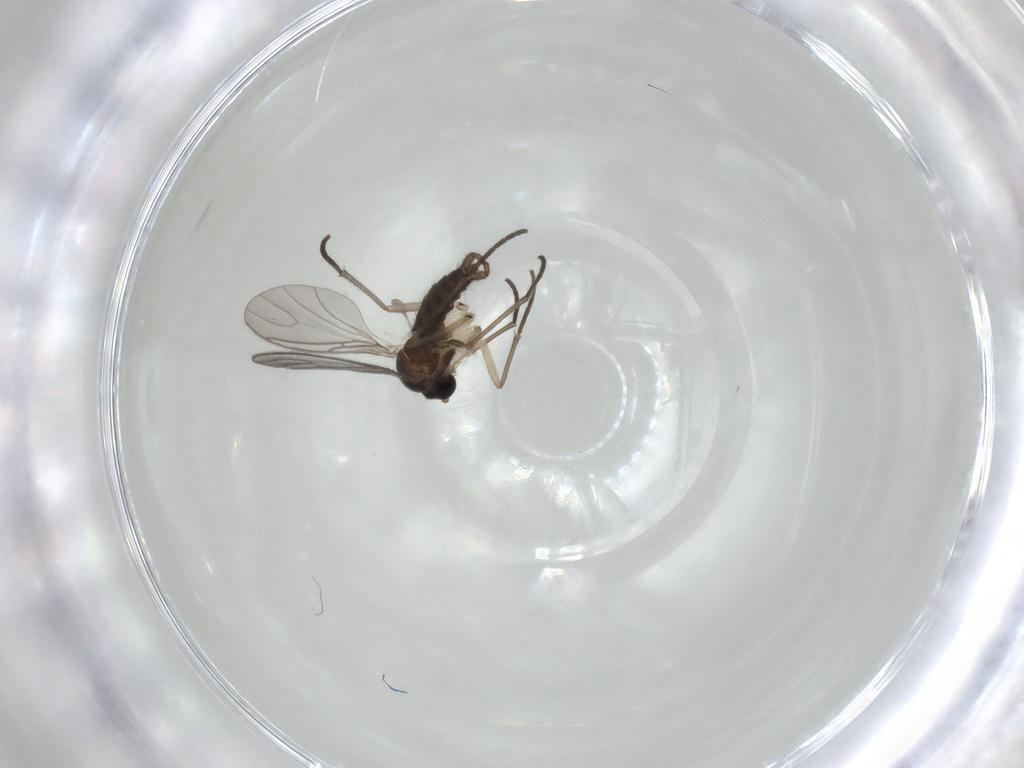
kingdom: Animalia
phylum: Arthropoda
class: Insecta
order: Diptera
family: Sciaridae
